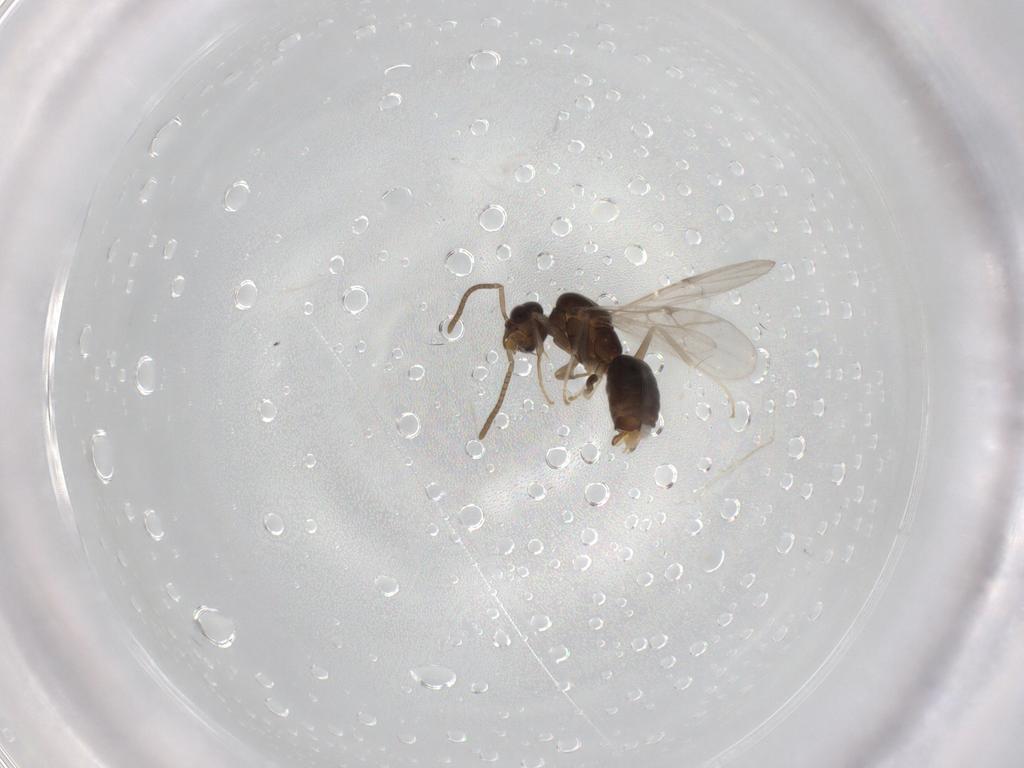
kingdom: Animalia
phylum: Arthropoda
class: Insecta
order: Hymenoptera
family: Formicidae
